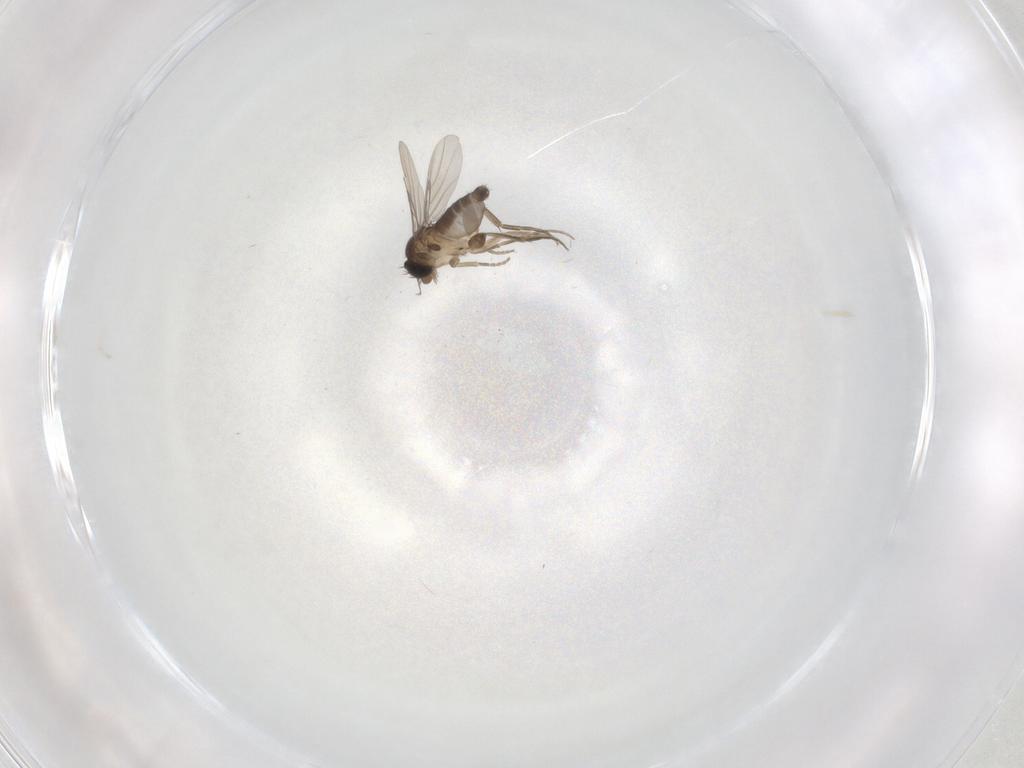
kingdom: Animalia
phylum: Arthropoda
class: Insecta
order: Diptera
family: Phoridae
